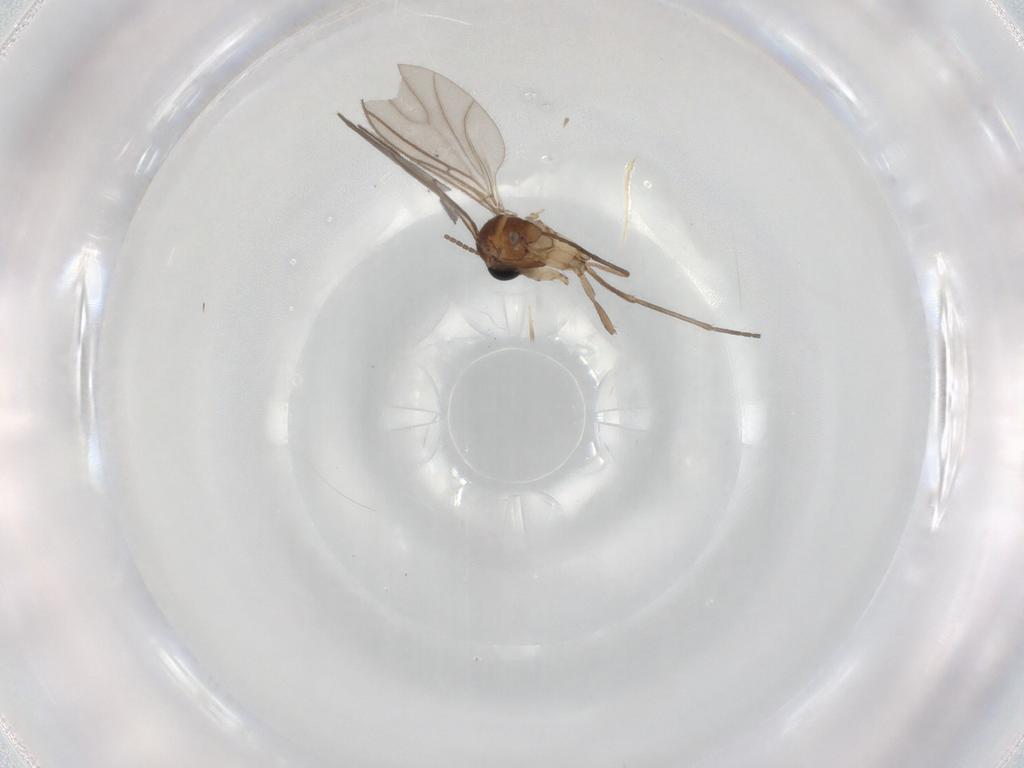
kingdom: Animalia
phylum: Arthropoda
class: Insecta
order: Diptera
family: Sciaridae
